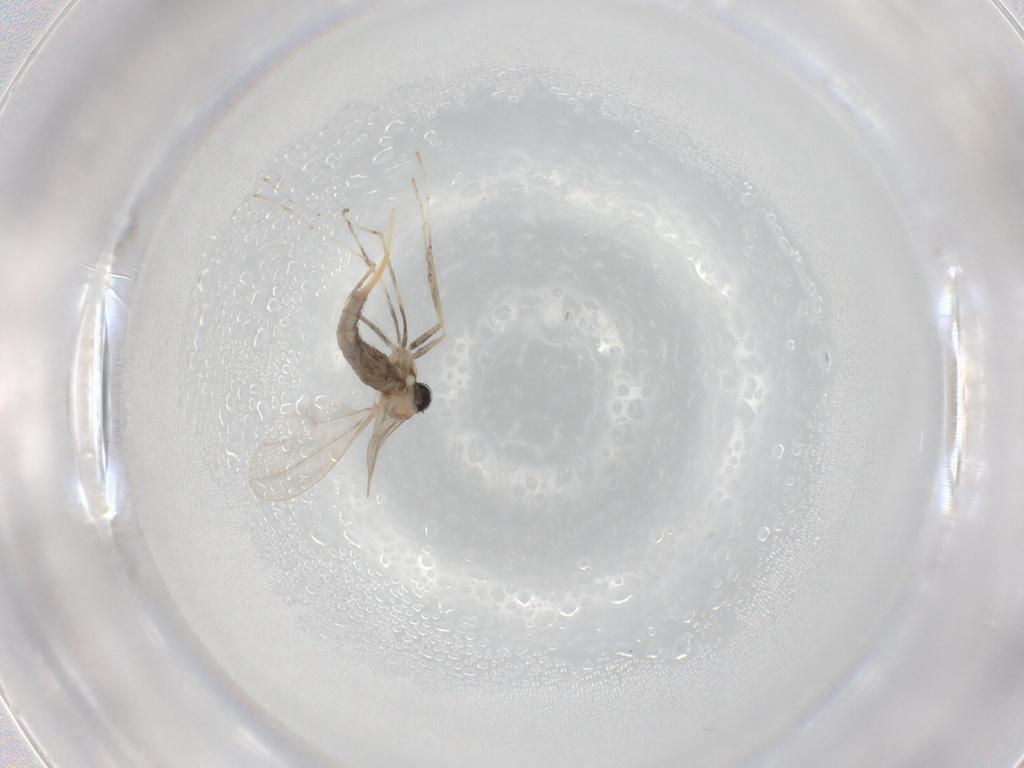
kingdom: Animalia
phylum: Arthropoda
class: Insecta
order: Diptera
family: Cecidomyiidae
